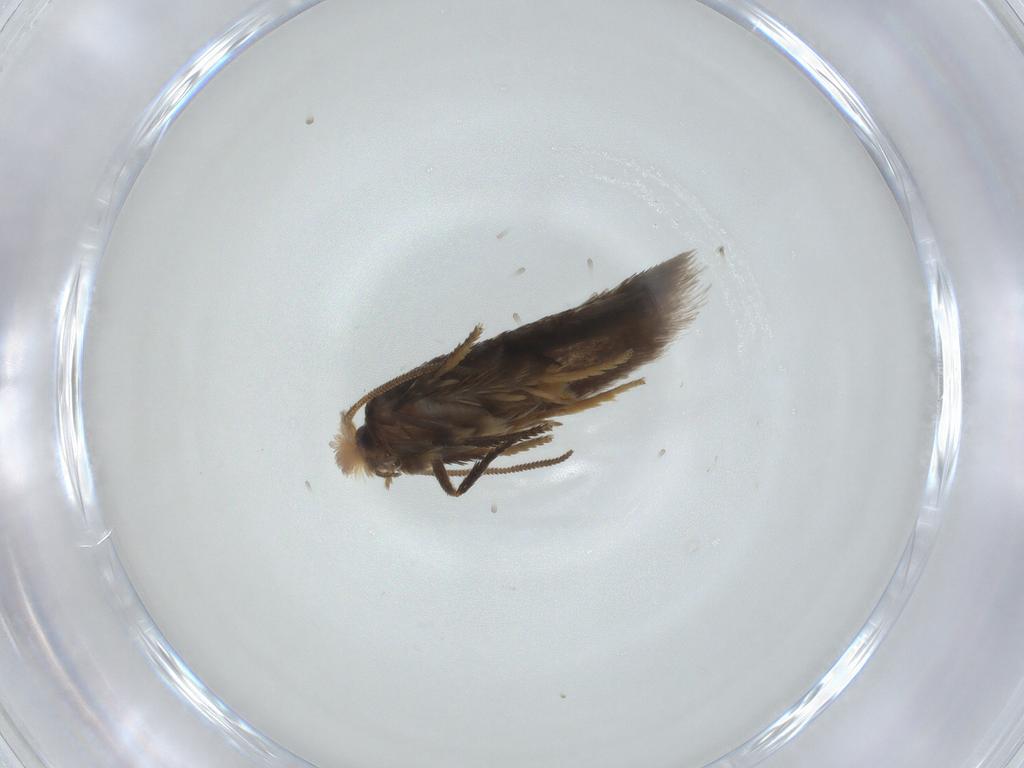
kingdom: Animalia
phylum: Arthropoda
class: Insecta
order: Lepidoptera
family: Nepticulidae
